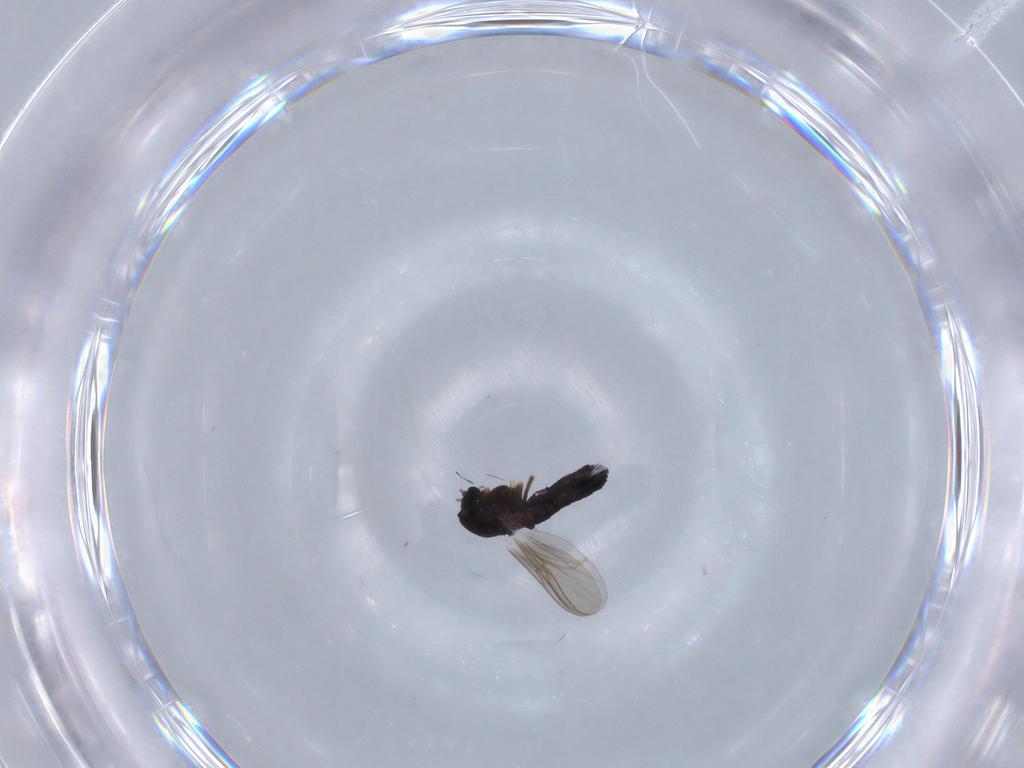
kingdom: Animalia
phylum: Arthropoda
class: Insecta
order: Diptera
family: Chironomidae
